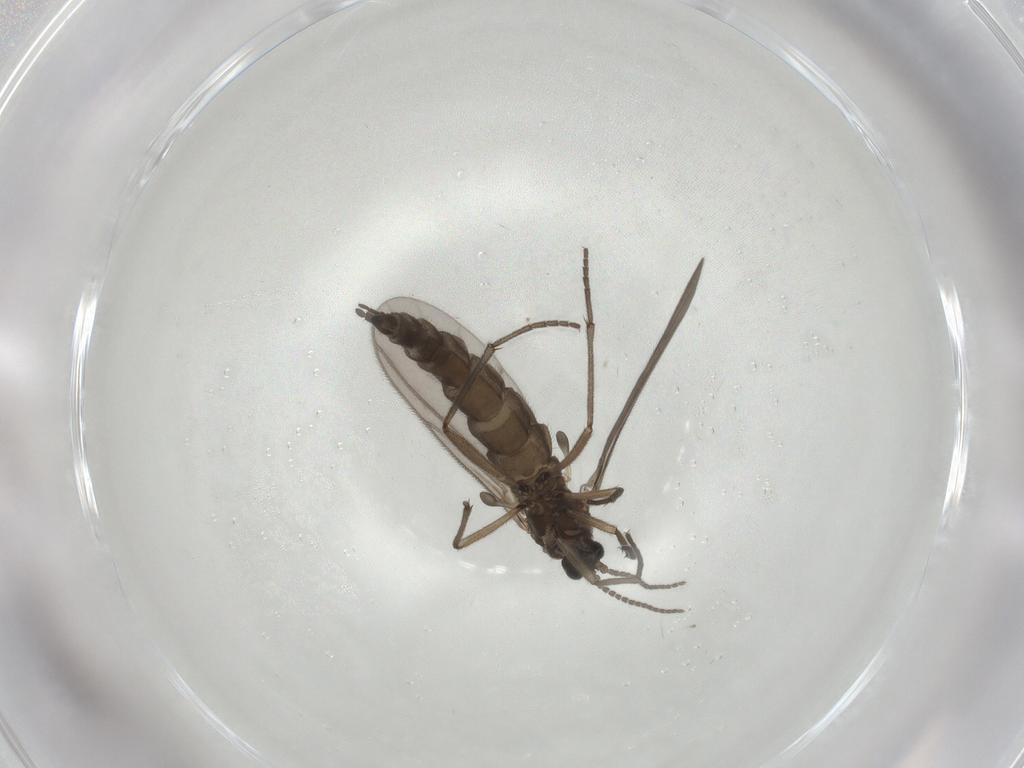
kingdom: Animalia
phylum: Arthropoda
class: Insecta
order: Diptera
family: Sciaridae
